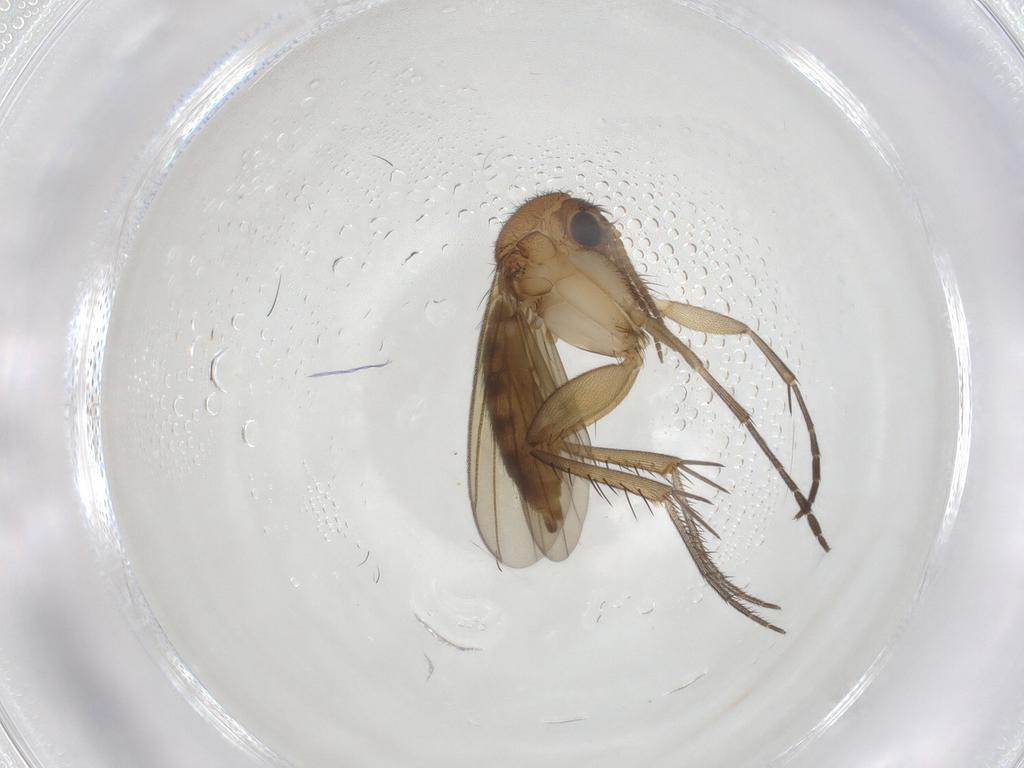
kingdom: Animalia
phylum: Arthropoda
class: Insecta
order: Diptera
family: Mycetophilidae
